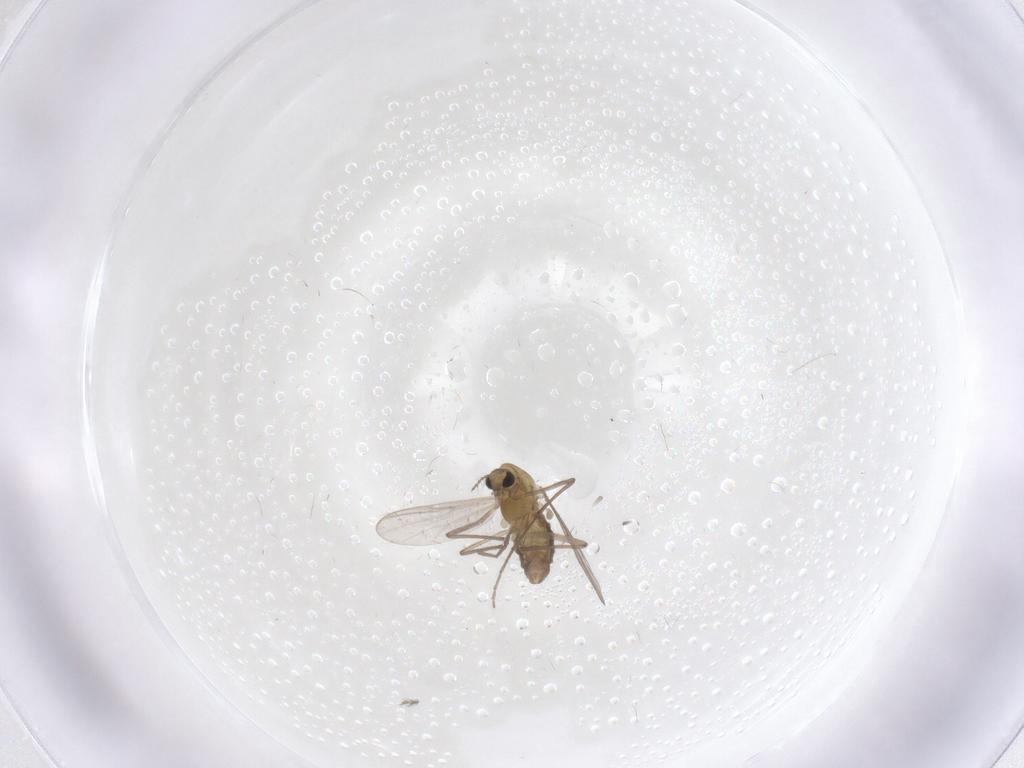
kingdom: Animalia
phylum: Arthropoda
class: Insecta
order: Diptera
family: Chironomidae
